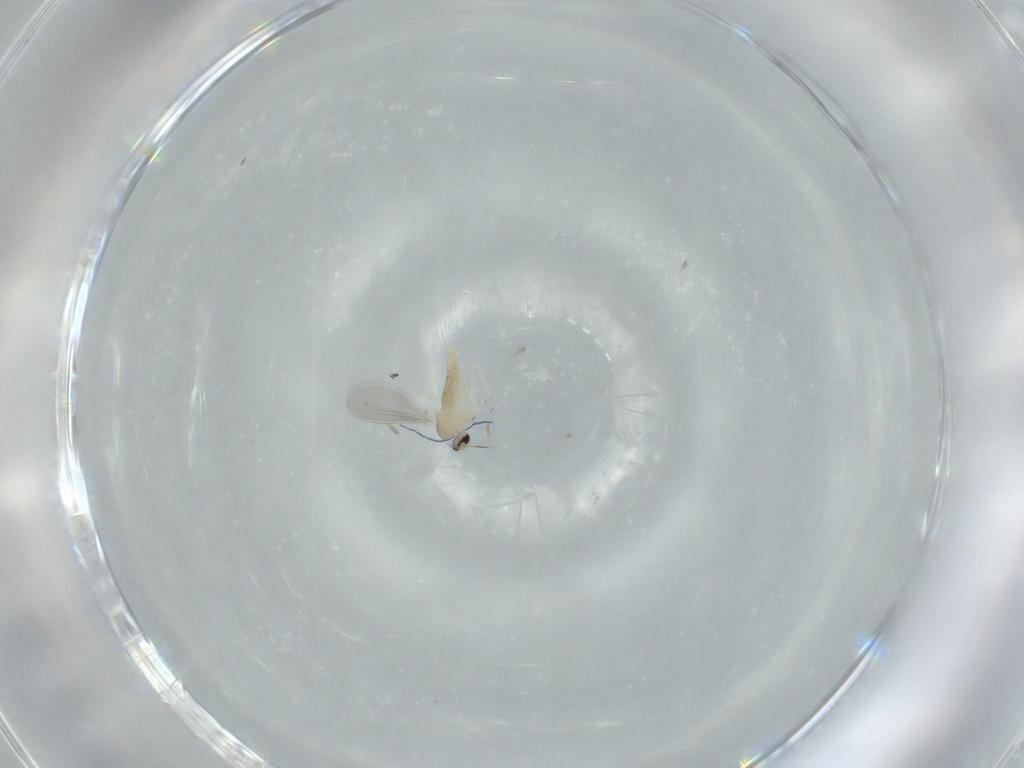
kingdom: Animalia
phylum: Arthropoda
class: Insecta
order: Diptera
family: Cecidomyiidae
